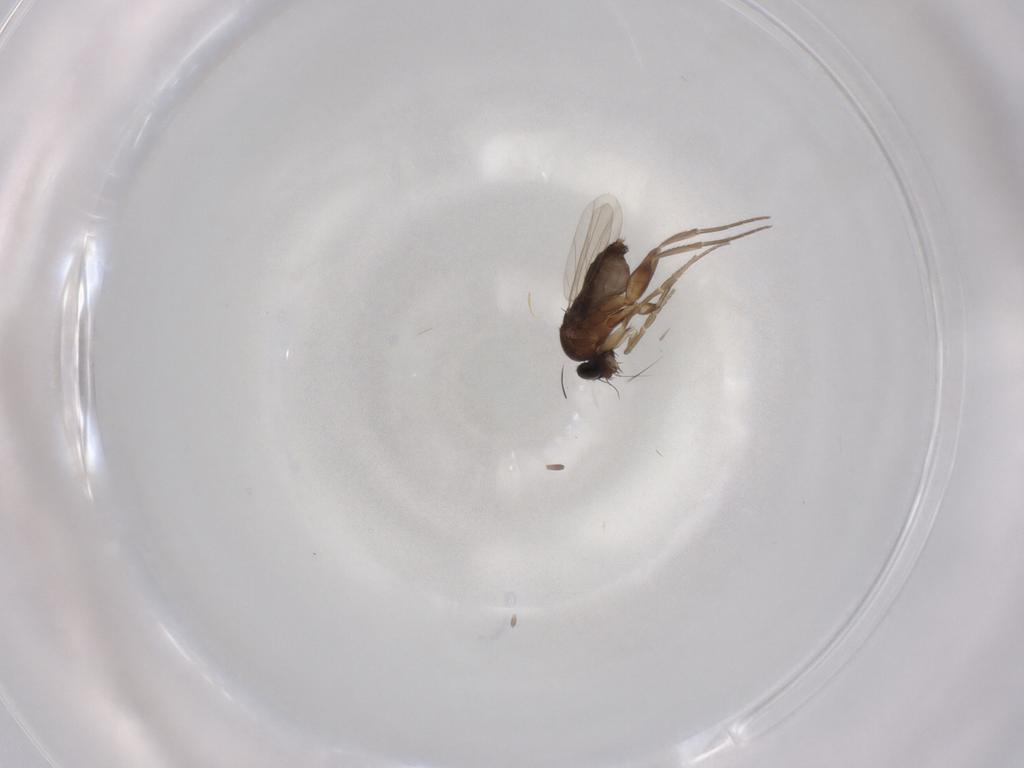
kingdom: Animalia
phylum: Arthropoda
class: Insecta
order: Diptera
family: Phoridae
